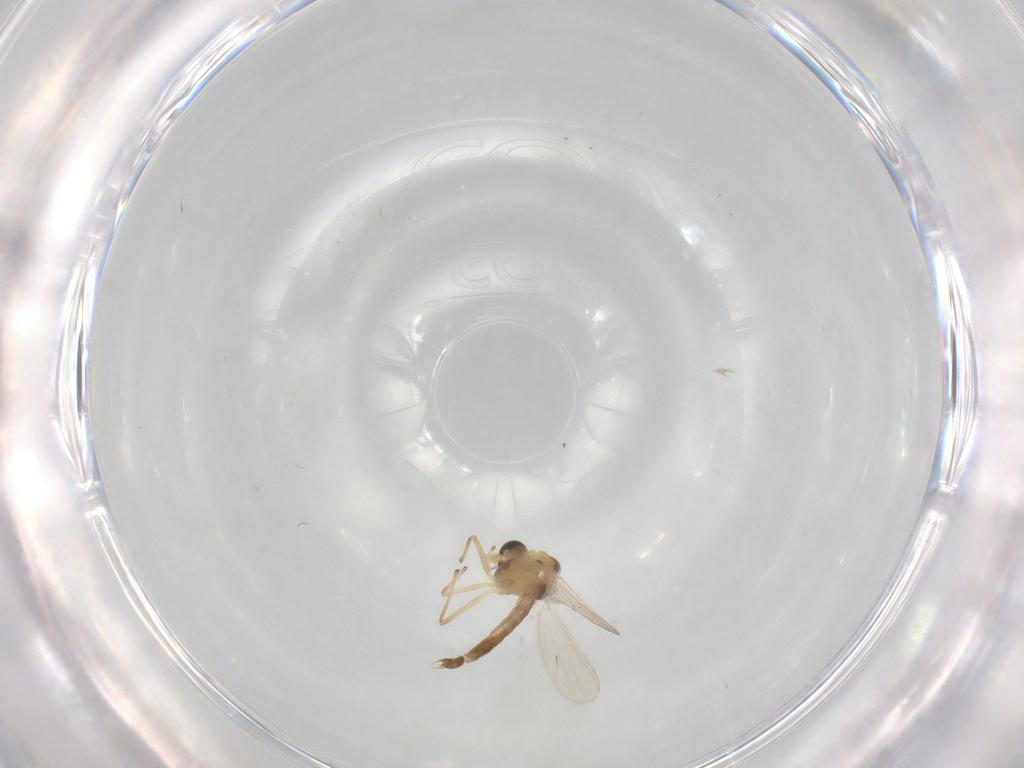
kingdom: Animalia
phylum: Arthropoda
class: Insecta
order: Diptera
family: Chironomidae
